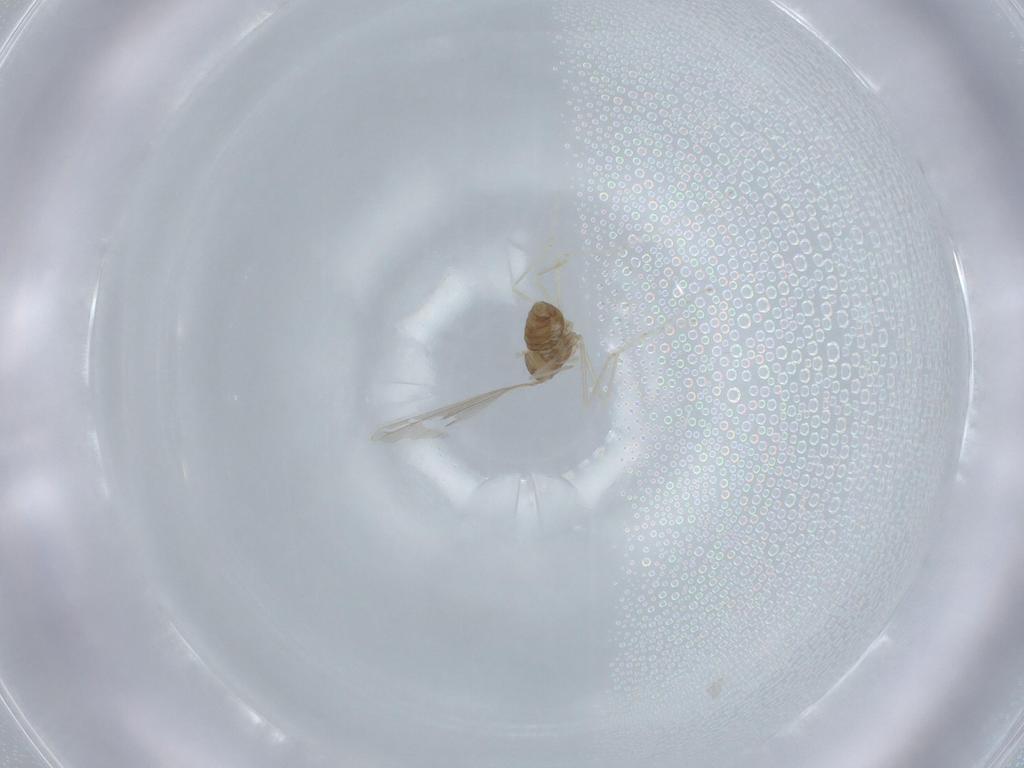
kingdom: Animalia
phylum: Arthropoda
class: Insecta
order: Diptera
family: Cecidomyiidae
